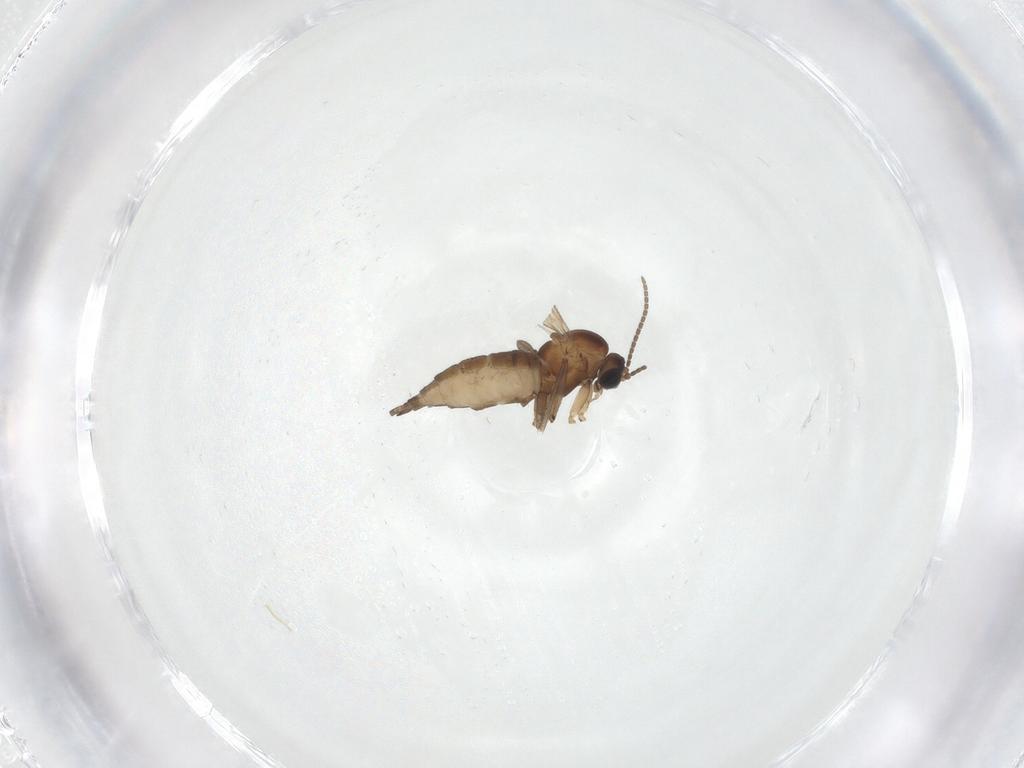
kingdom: Animalia
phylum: Arthropoda
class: Insecta
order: Diptera
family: Sciaridae
